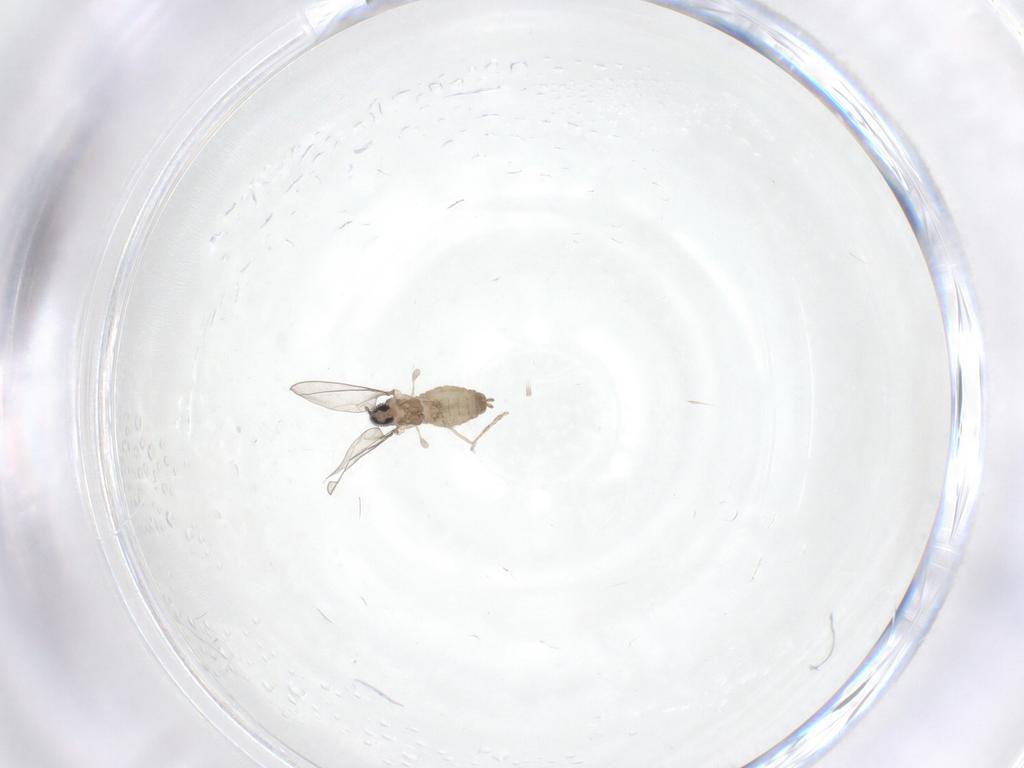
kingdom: Animalia
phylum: Arthropoda
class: Insecta
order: Diptera
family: Cecidomyiidae
